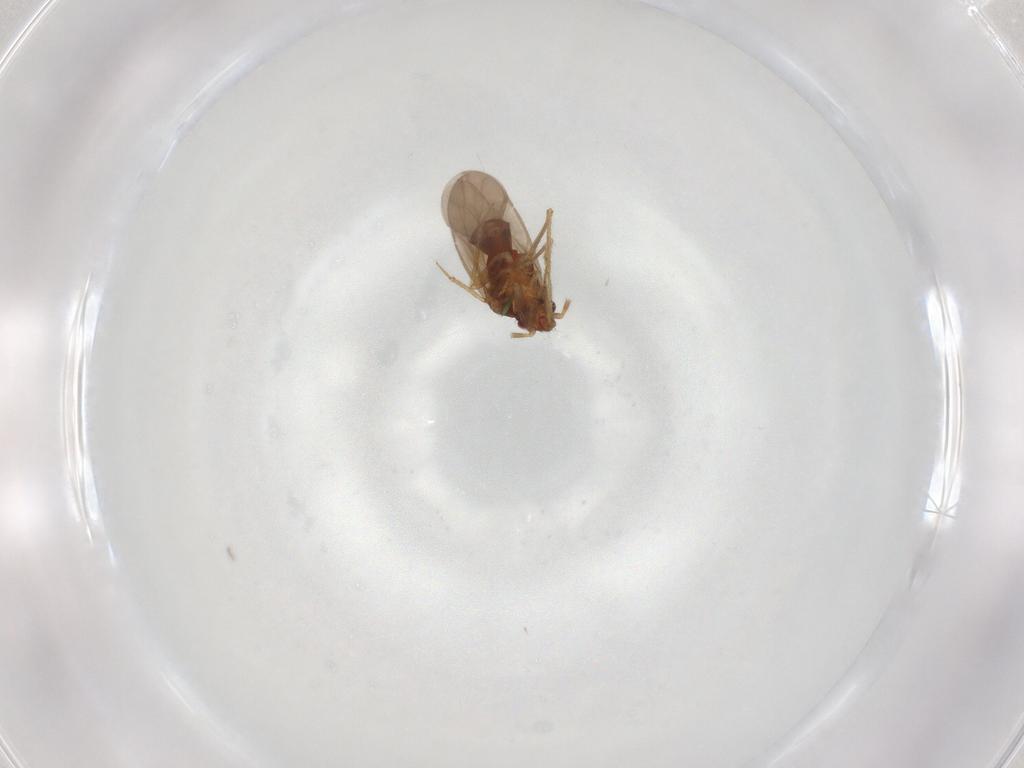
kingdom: Animalia
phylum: Arthropoda
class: Insecta
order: Hemiptera
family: Ceratocombidae
